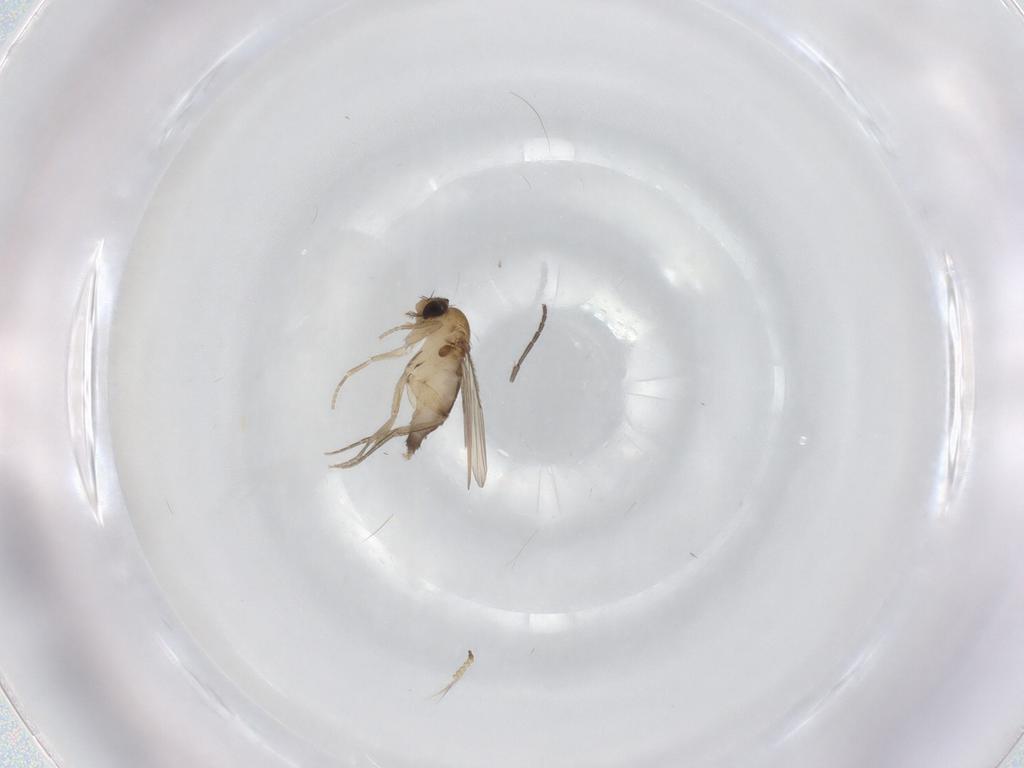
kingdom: Animalia
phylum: Arthropoda
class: Insecta
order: Diptera
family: Phoridae
